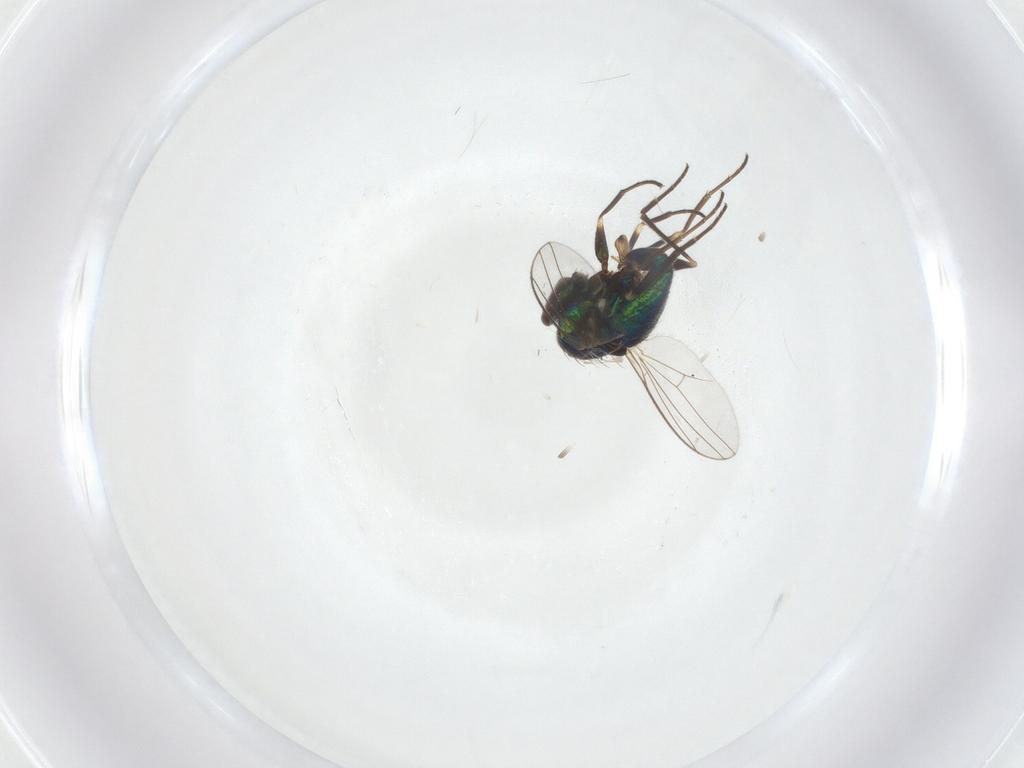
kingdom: Animalia
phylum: Arthropoda
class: Insecta
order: Diptera
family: Dolichopodidae
